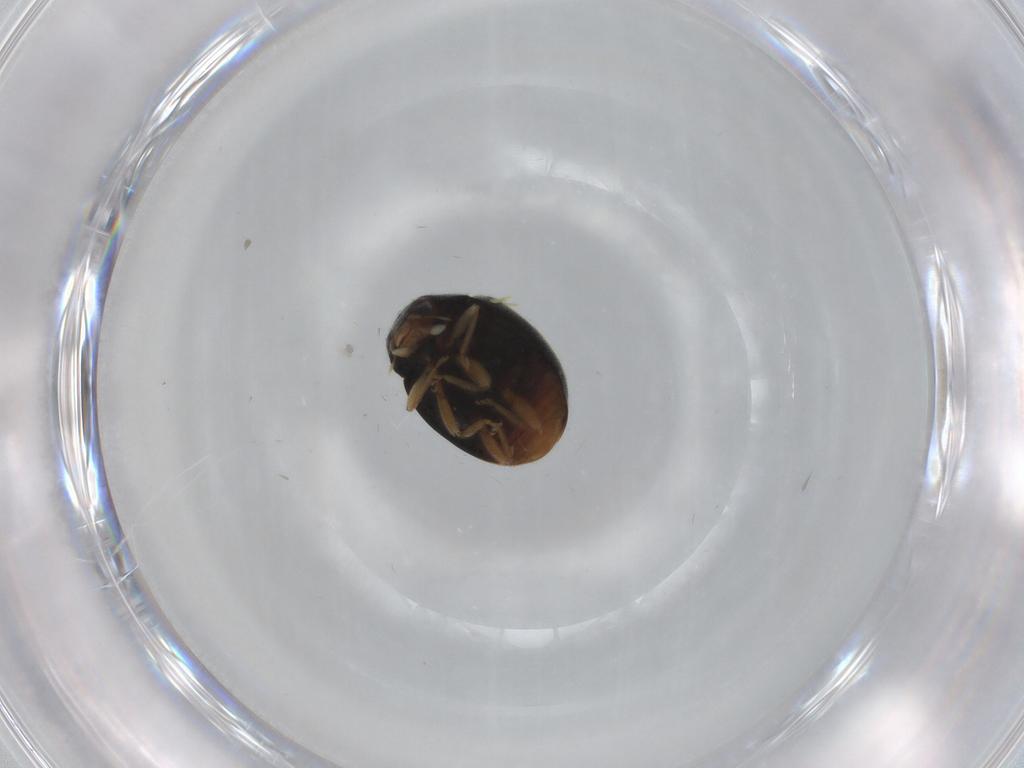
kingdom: Animalia
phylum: Arthropoda
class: Insecta
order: Coleoptera
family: Coccinellidae
